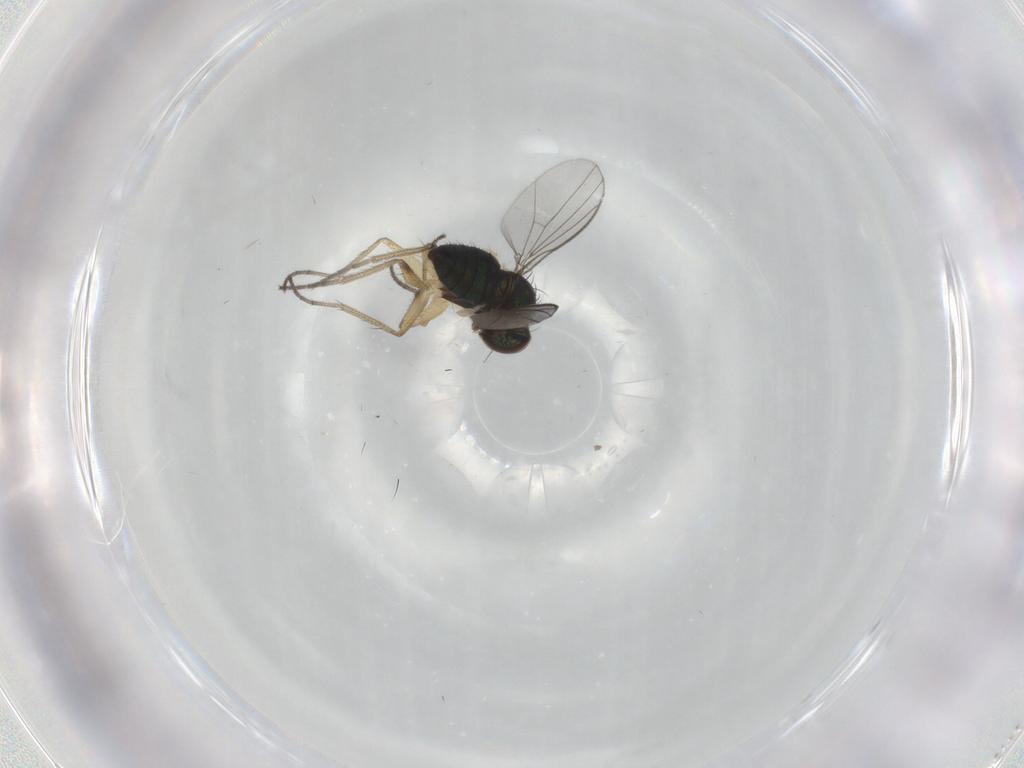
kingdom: Animalia
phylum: Arthropoda
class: Insecta
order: Diptera
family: Dolichopodidae
